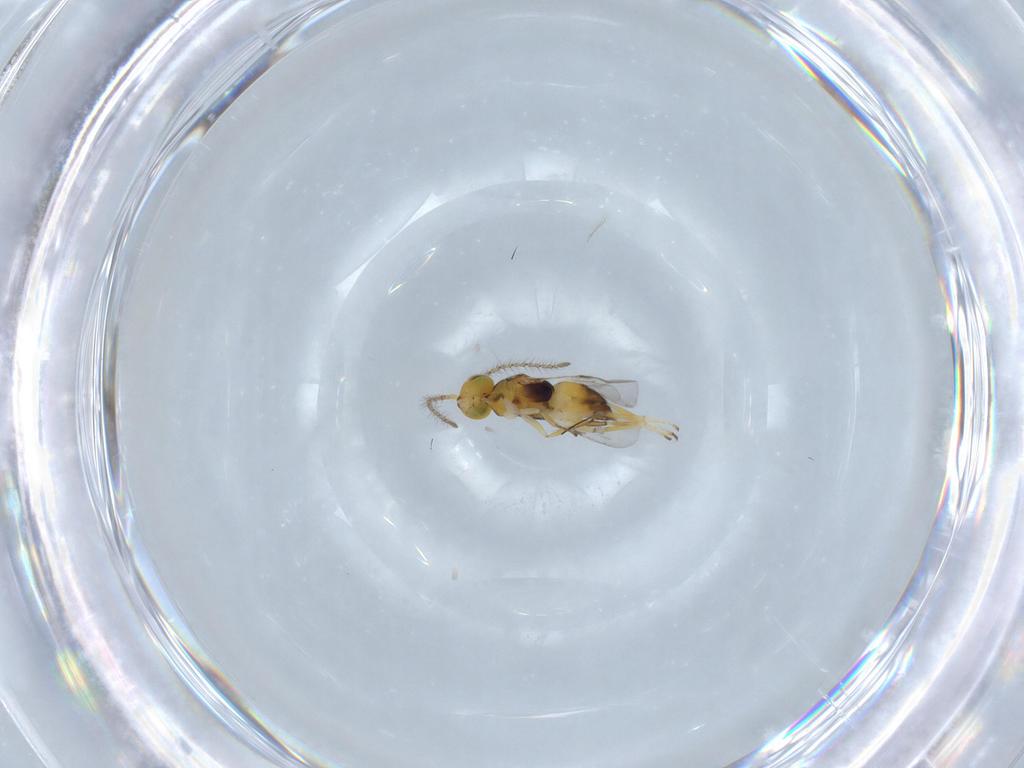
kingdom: Animalia
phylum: Arthropoda
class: Insecta
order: Hymenoptera
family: Encyrtidae
